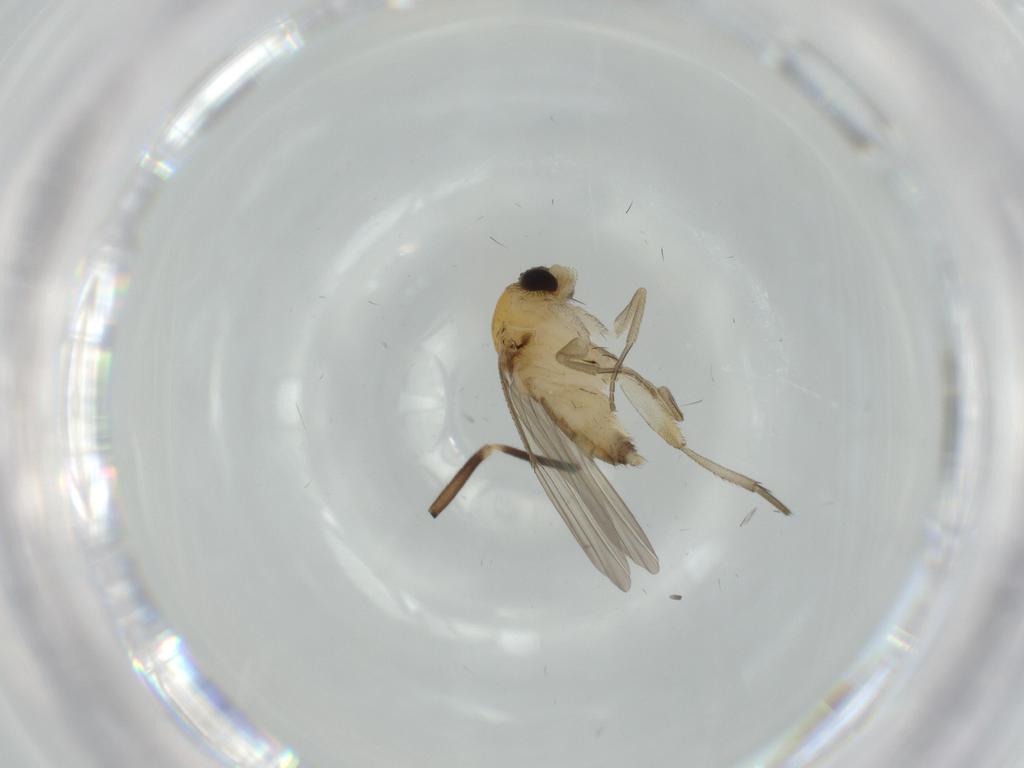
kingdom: Animalia
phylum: Arthropoda
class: Insecta
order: Diptera
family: Phoridae
